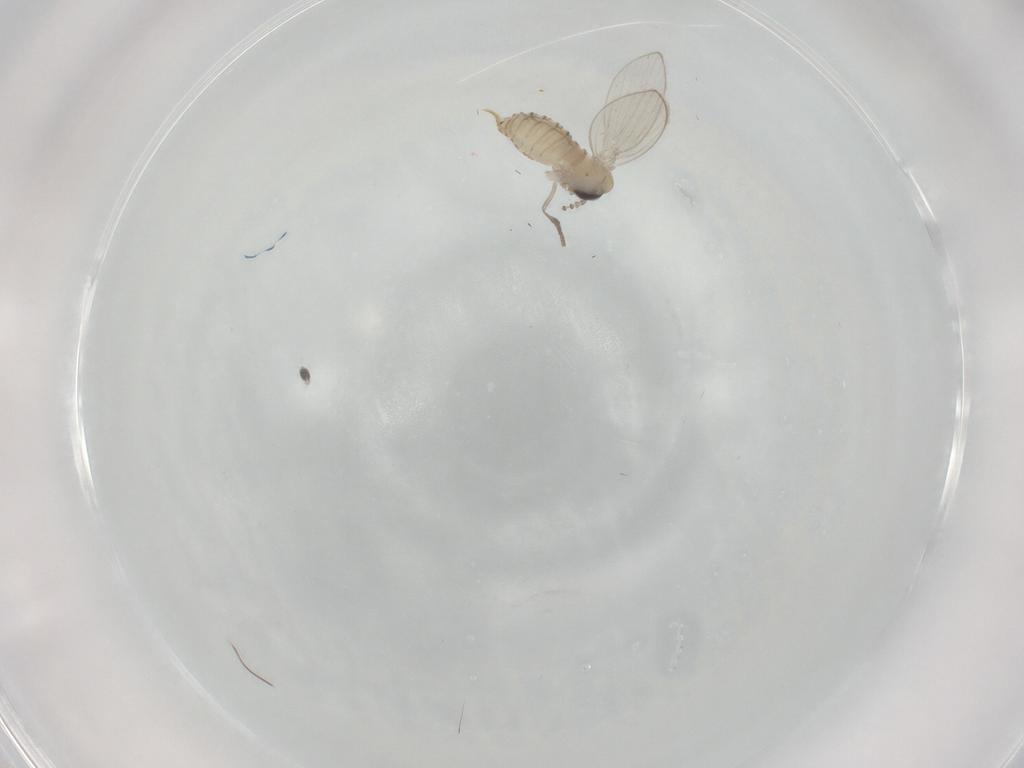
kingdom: Animalia
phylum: Arthropoda
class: Insecta
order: Diptera
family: Psychodidae
